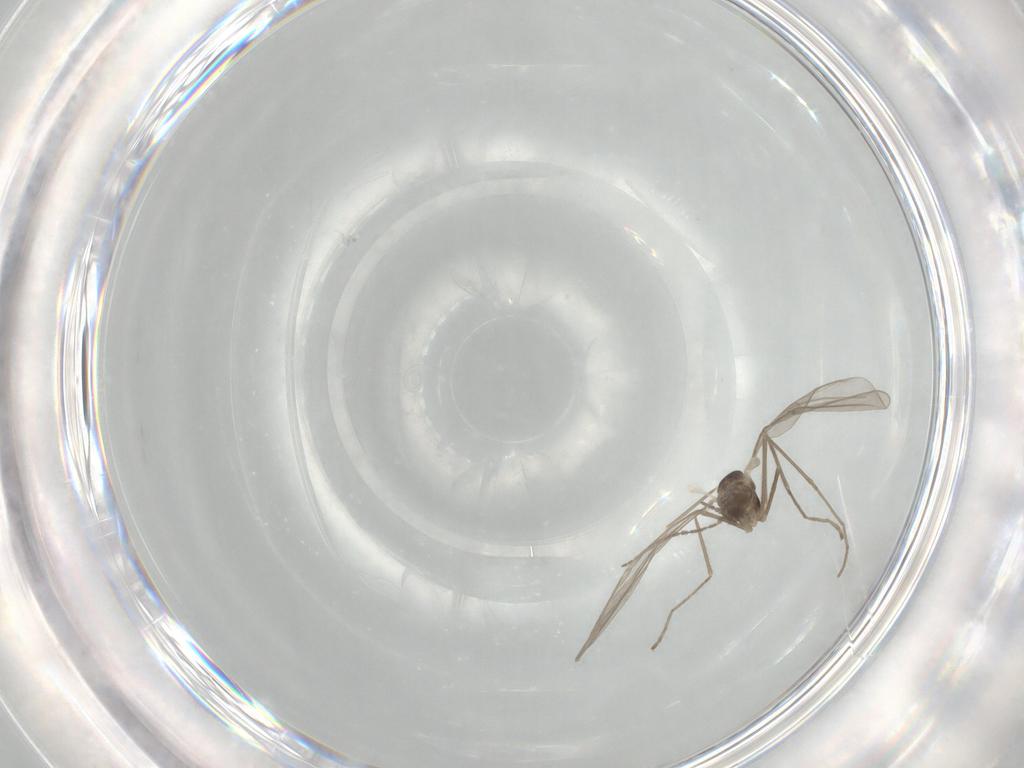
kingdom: Animalia
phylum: Arthropoda
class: Insecta
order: Diptera
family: Cecidomyiidae
